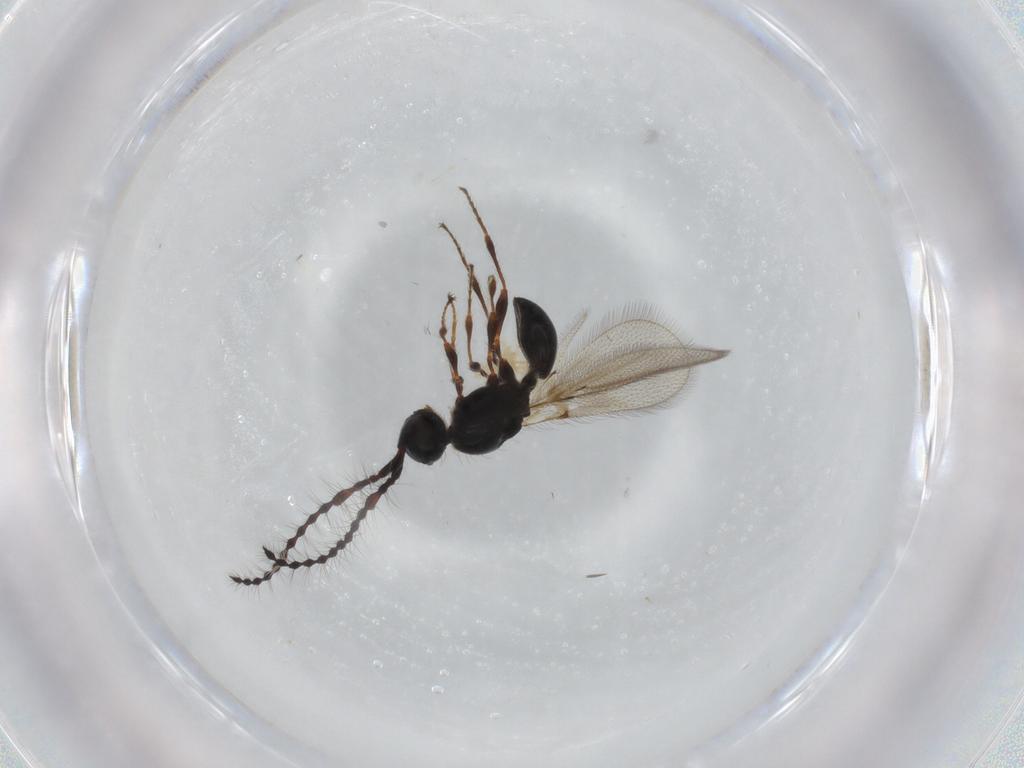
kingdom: Animalia
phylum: Arthropoda
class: Insecta
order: Hymenoptera
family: Diapriidae
